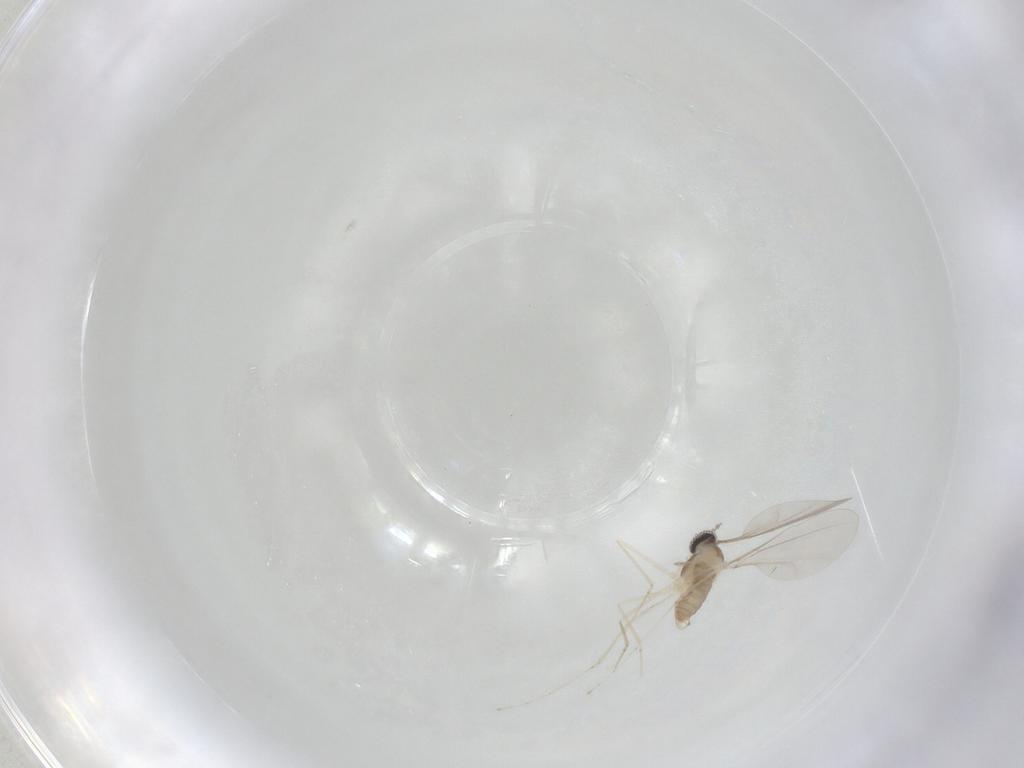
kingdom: Animalia
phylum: Arthropoda
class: Insecta
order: Diptera
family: Cecidomyiidae
